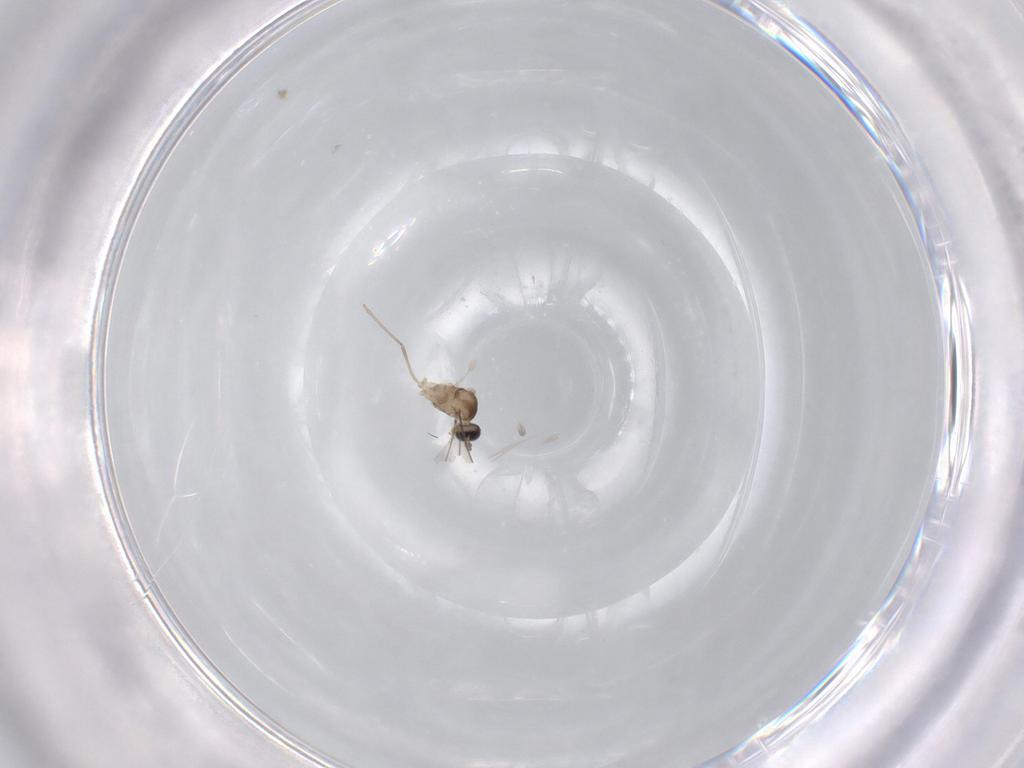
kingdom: Animalia
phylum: Arthropoda
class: Insecta
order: Diptera
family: Cecidomyiidae
